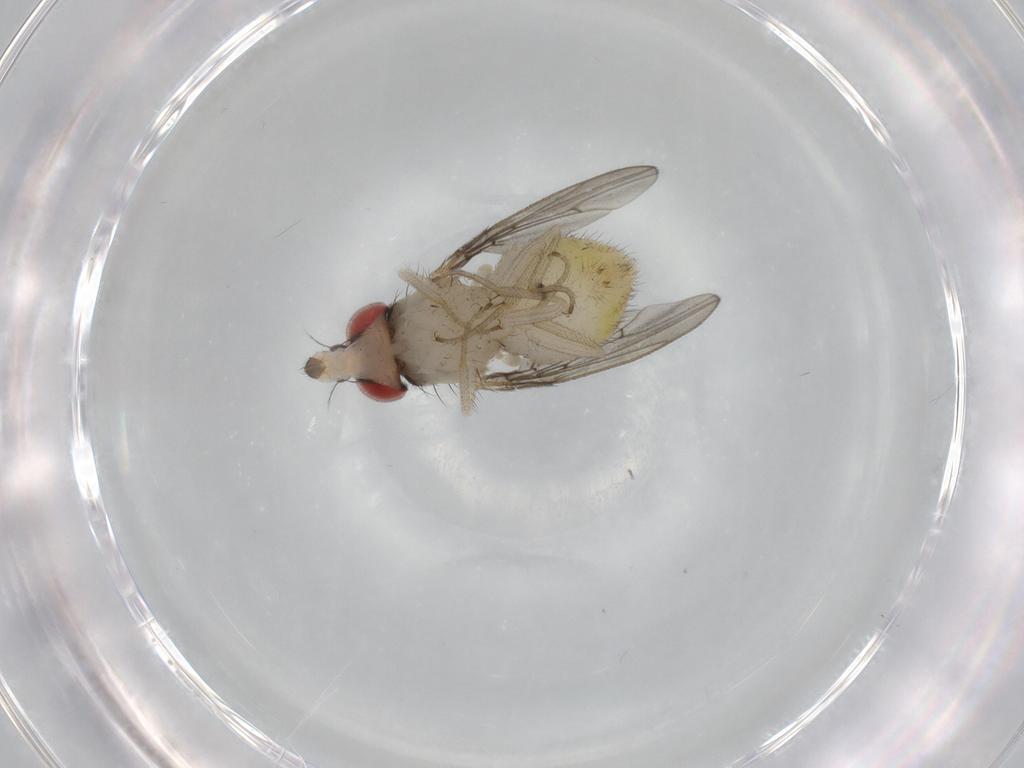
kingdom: Animalia
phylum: Arthropoda
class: Insecta
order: Diptera
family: Drosophilidae
